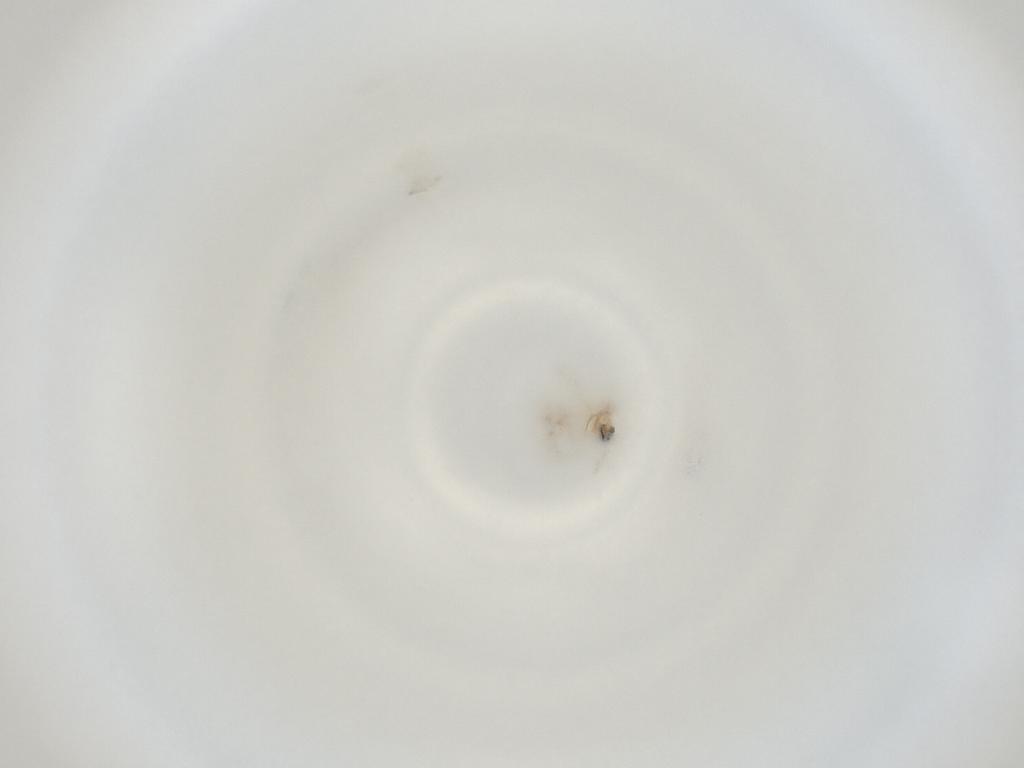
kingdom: Animalia
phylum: Arthropoda
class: Insecta
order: Diptera
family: Cecidomyiidae
